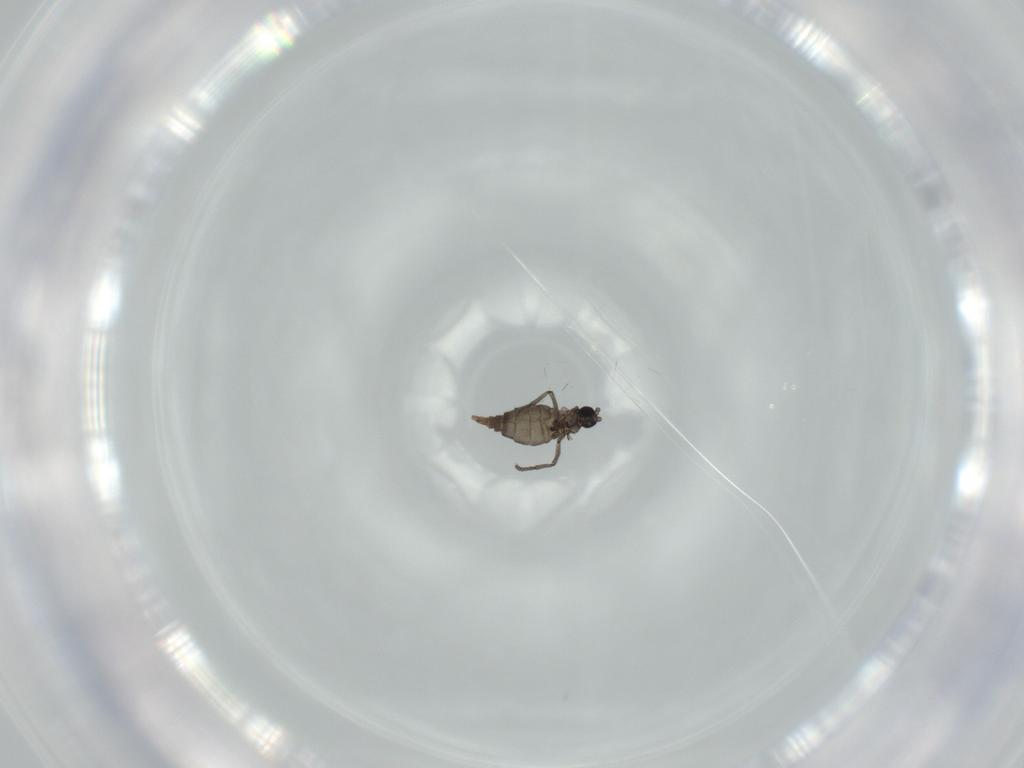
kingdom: Animalia
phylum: Arthropoda
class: Insecta
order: Diptera
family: Sciaridae
